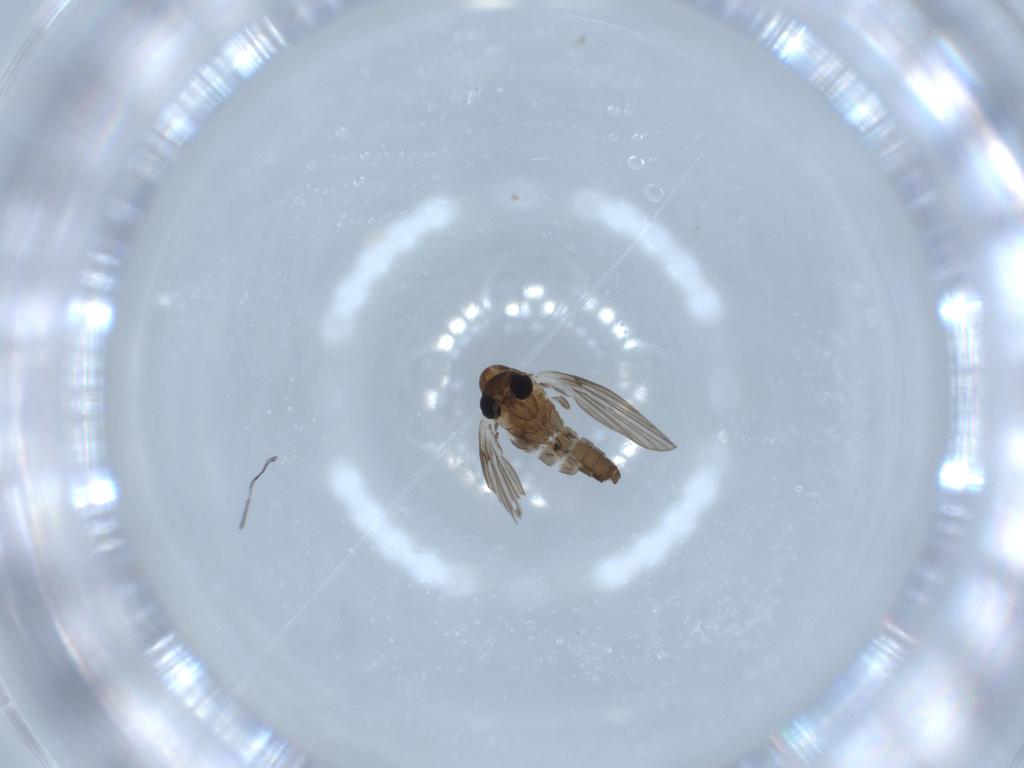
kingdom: Animalia
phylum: Arthropoda
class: Insecta
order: Diptera
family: Psychodidae
